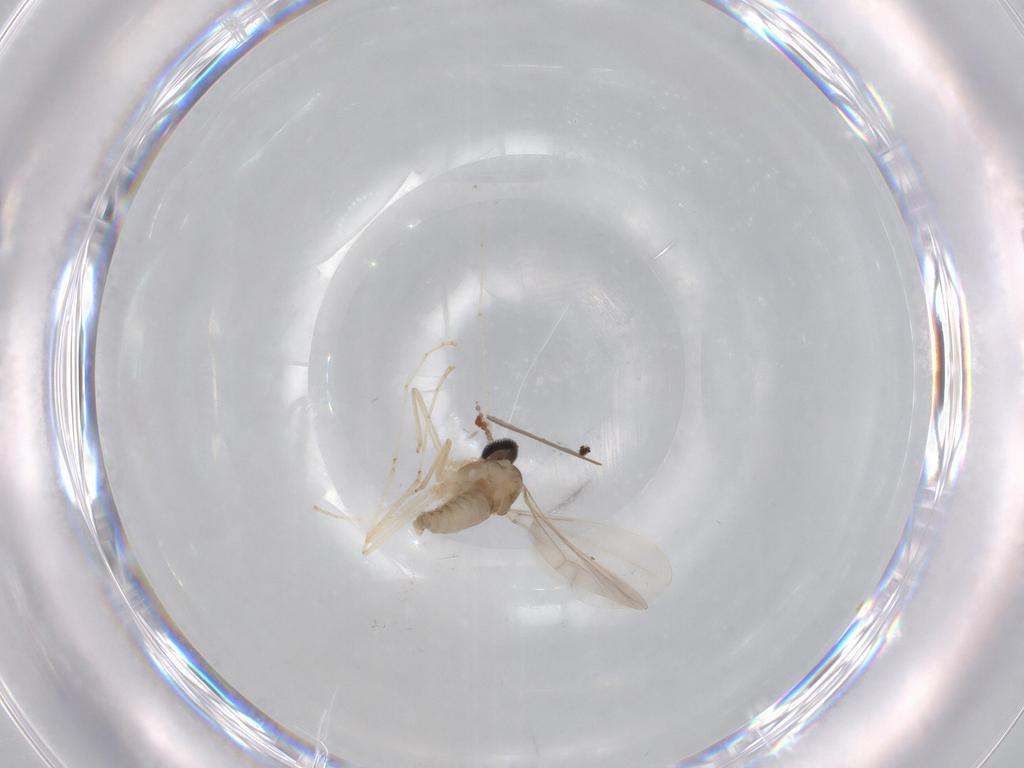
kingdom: Animalia
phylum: Arthropoda
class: Insecta
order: Diptera
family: Cecidomyiidae
